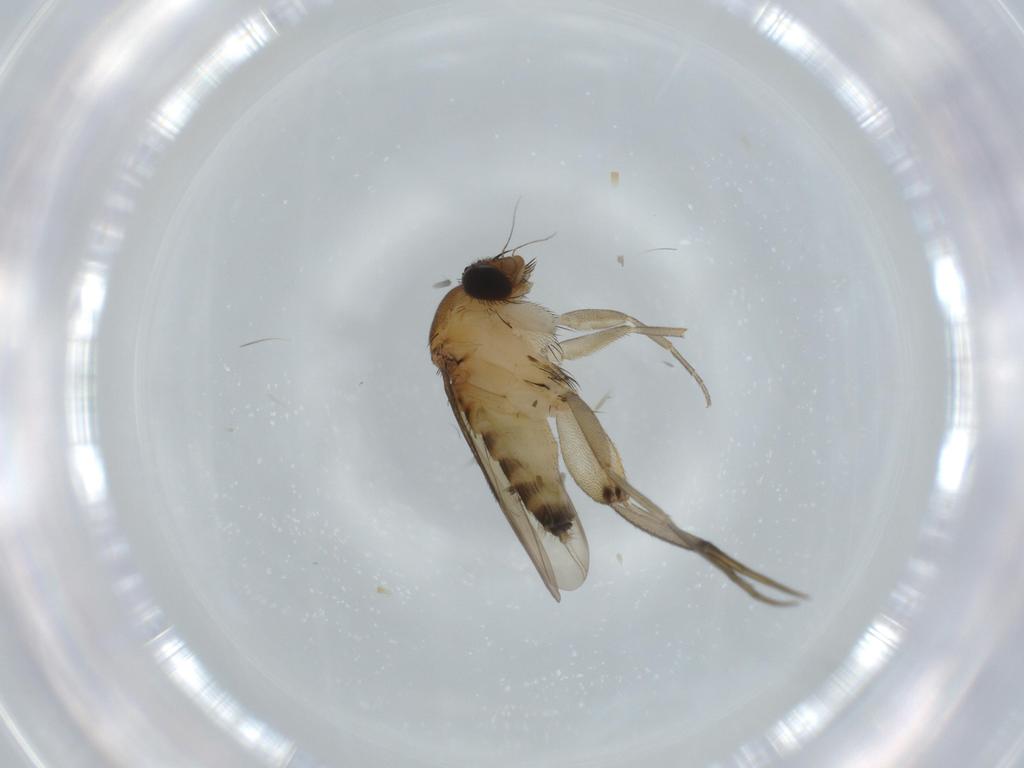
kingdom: Animalia
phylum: Arthropoda
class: Insecta
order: Diptera
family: Phoridae
